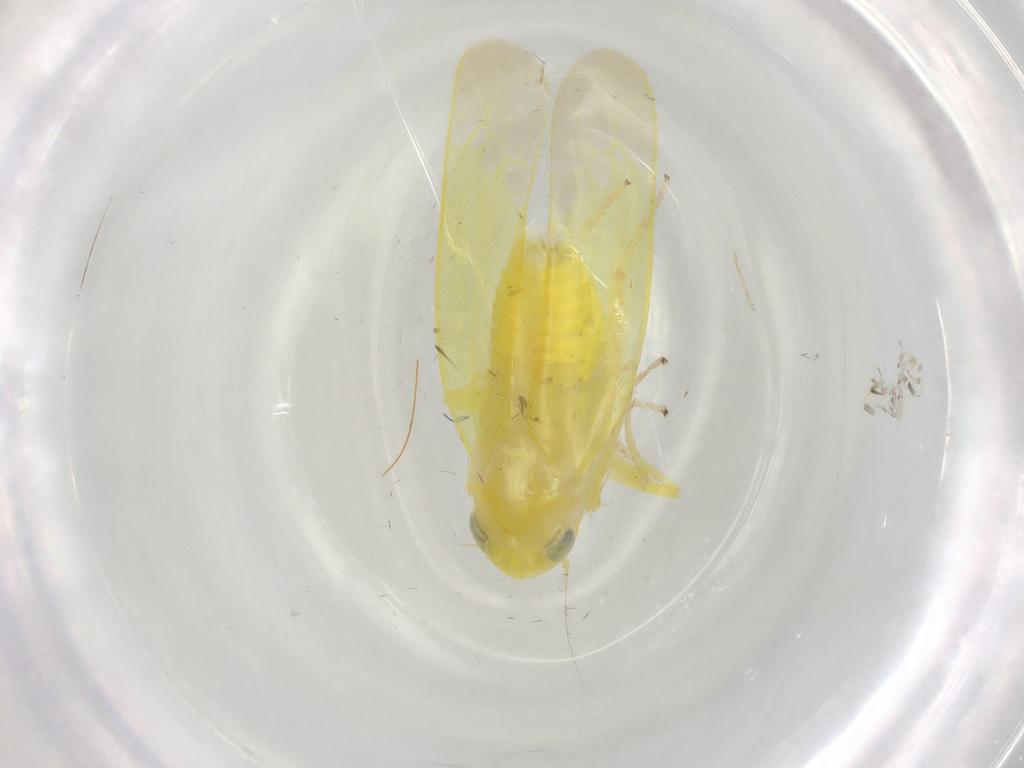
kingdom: Animalia
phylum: Arthropoda
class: Insecta
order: Hemiptera
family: Cicadellidae
